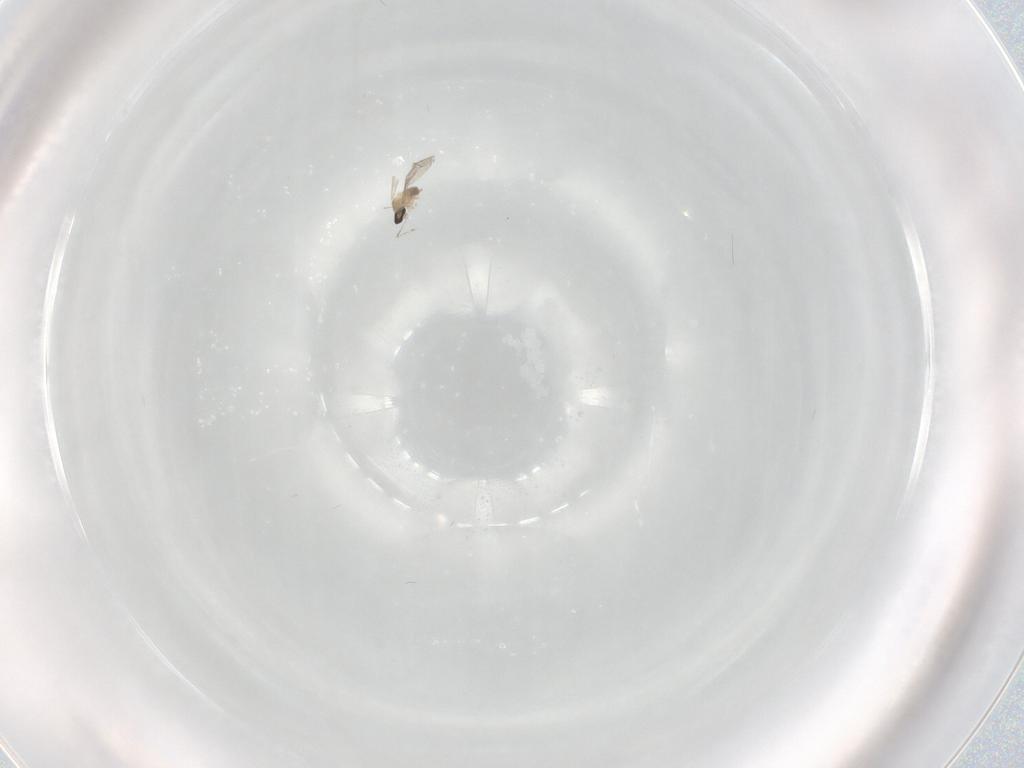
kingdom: Animalia
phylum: Arthropoda
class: Insecta
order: Diptera
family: Cecidomyiidae
